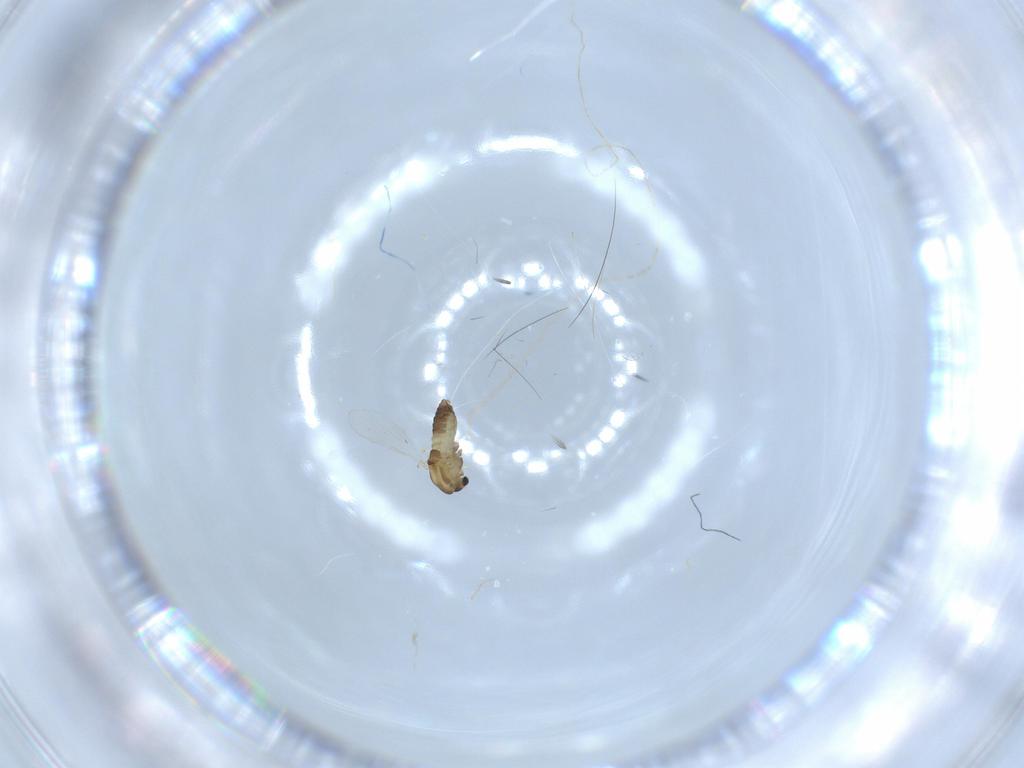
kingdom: Animalia
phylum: Arthropoda
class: Insecta
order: Diptera
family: Chironomidae
